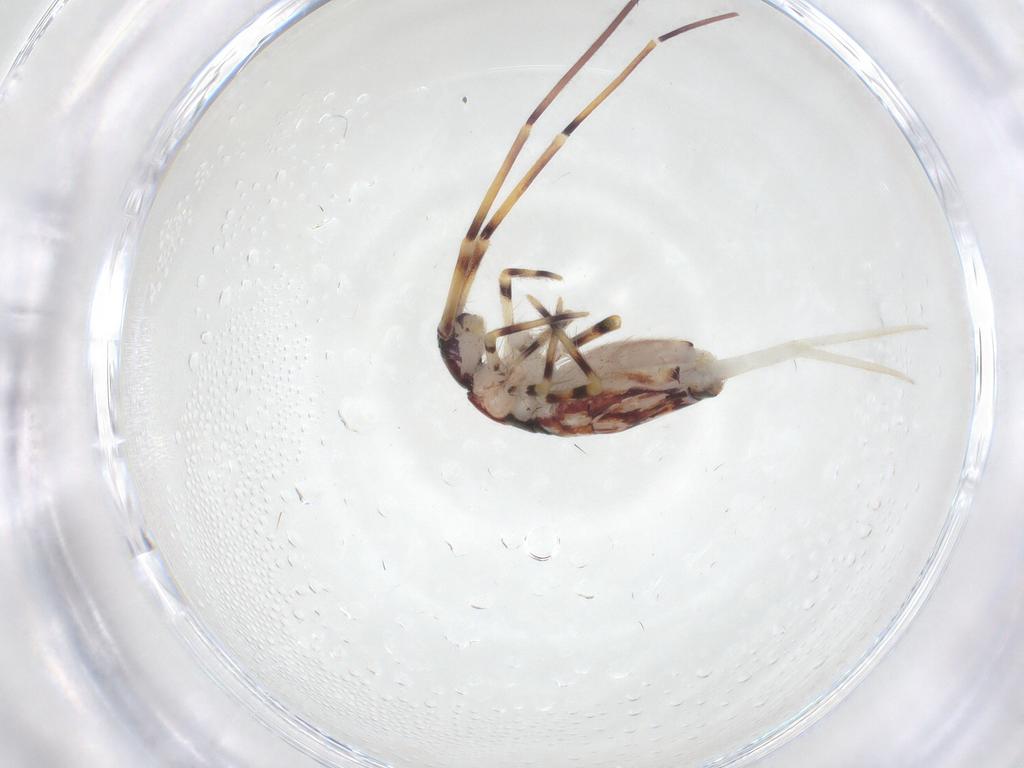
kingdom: Animalia
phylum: Arthropoda
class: Collembola
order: Entomobryomorpha
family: Entomobryidae
